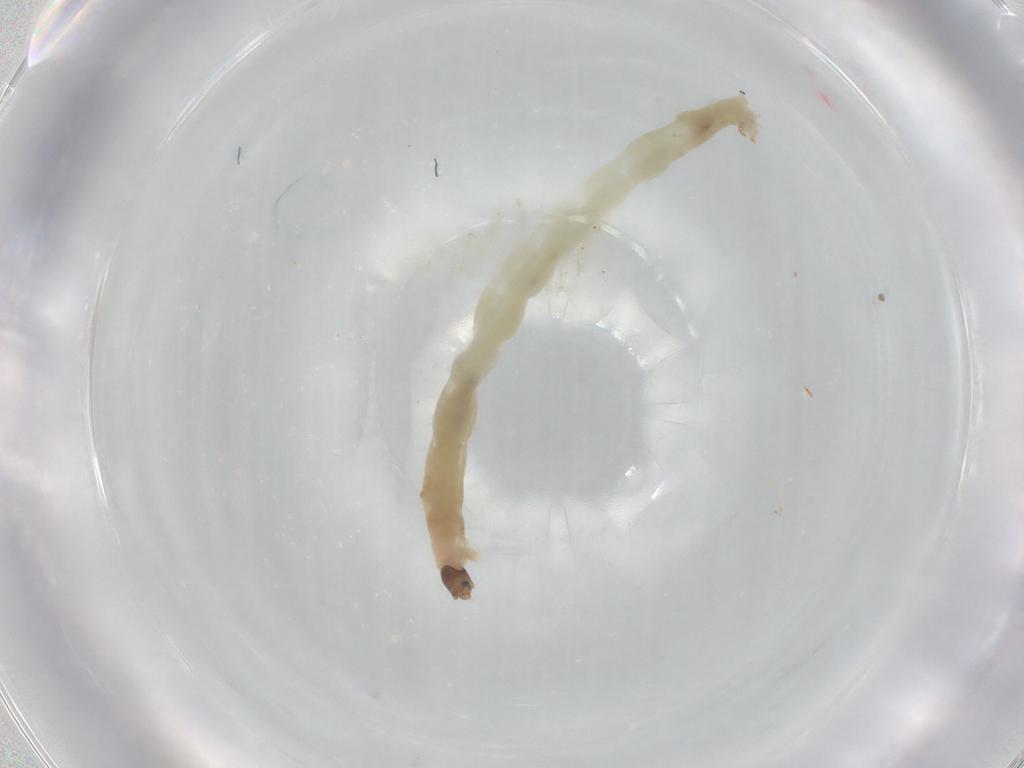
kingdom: Animalia
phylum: Arthropoda
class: Insecta
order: Diptera
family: Chironomidae
